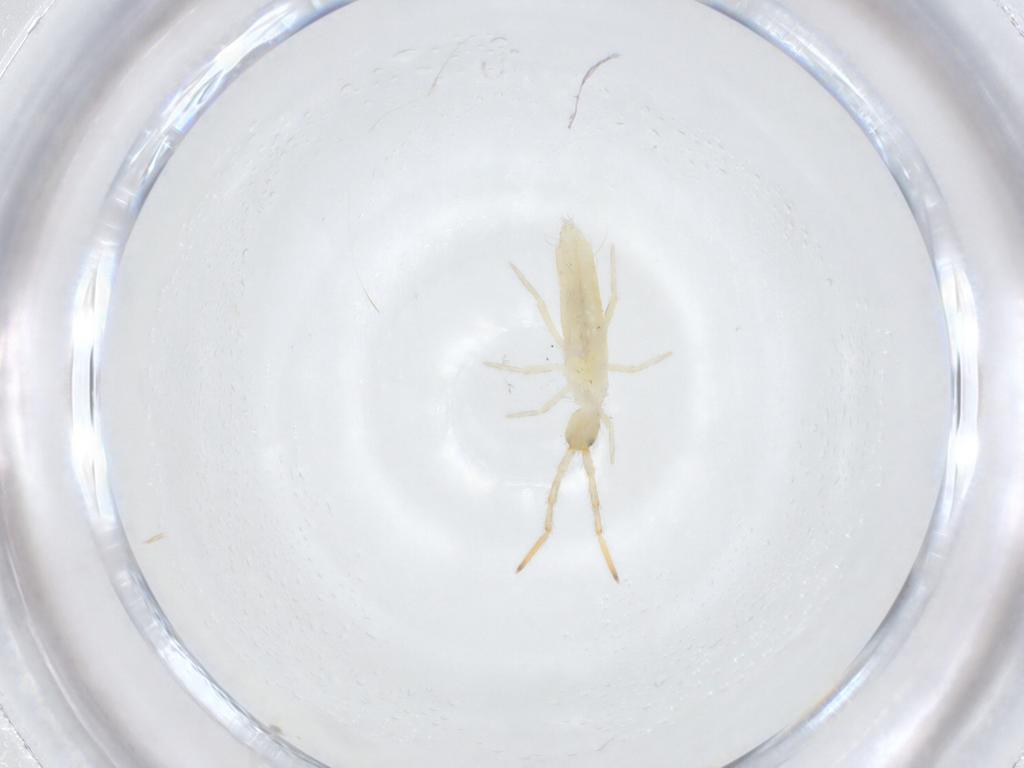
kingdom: Animalia
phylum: Arthropoda
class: Collembola
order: Entomobryomorpha
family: Entomobryidae
